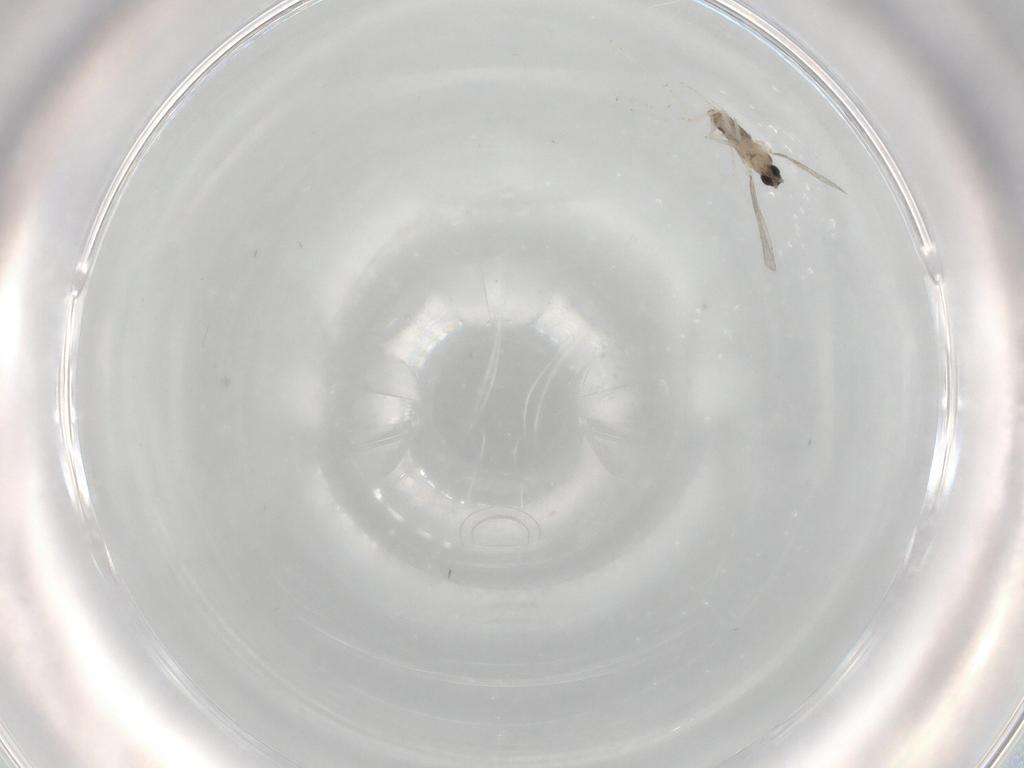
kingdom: Animalia
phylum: Arthropoda
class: Insecta
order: Diptera
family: Cecidomyiidae
